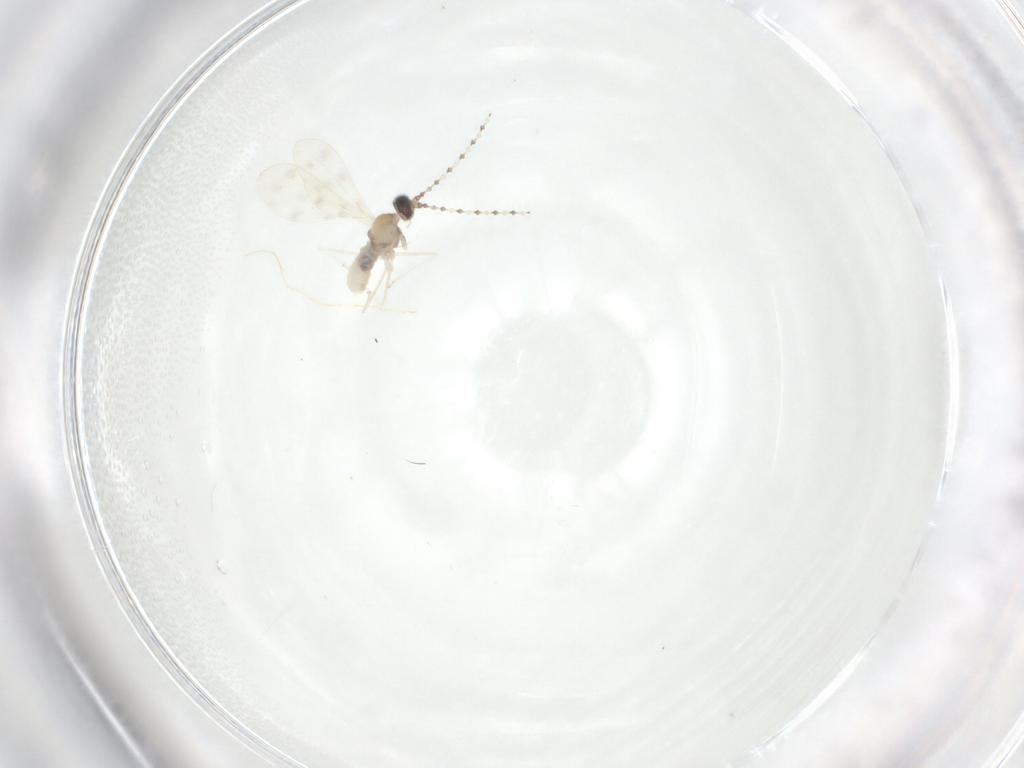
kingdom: Animalia
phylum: Arthropoda
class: Insecta
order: Diptera
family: Cecidomyiidae
